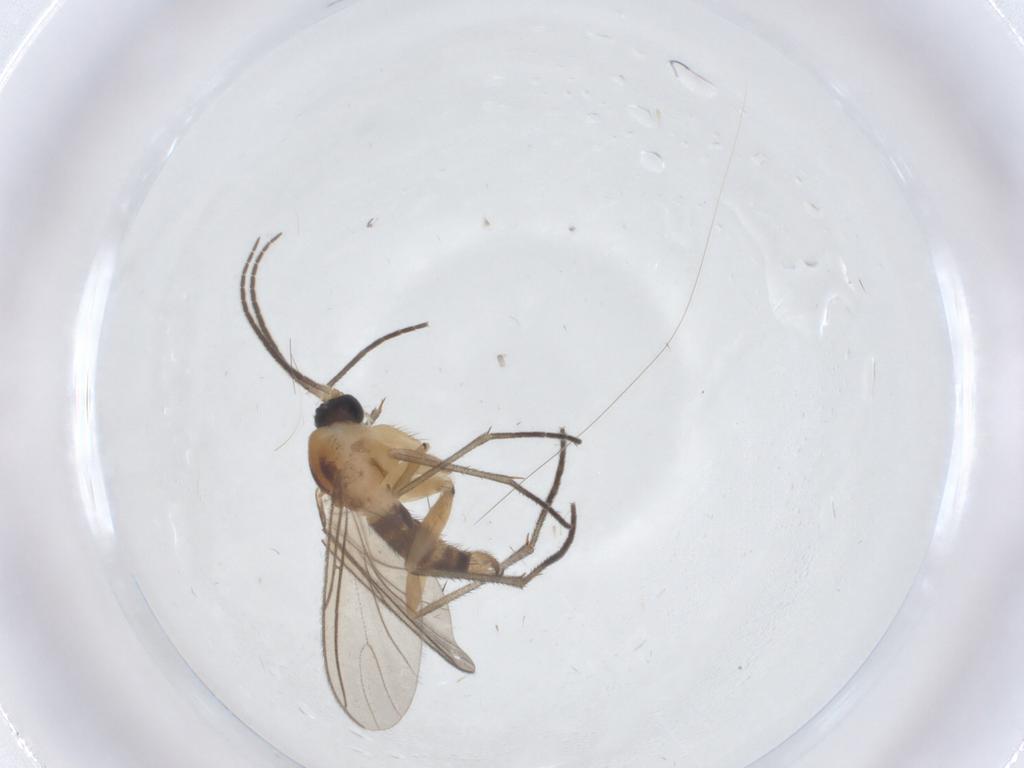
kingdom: Animalia
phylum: Arthropoda
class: Insecta
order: Diptera
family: Sciaridae
